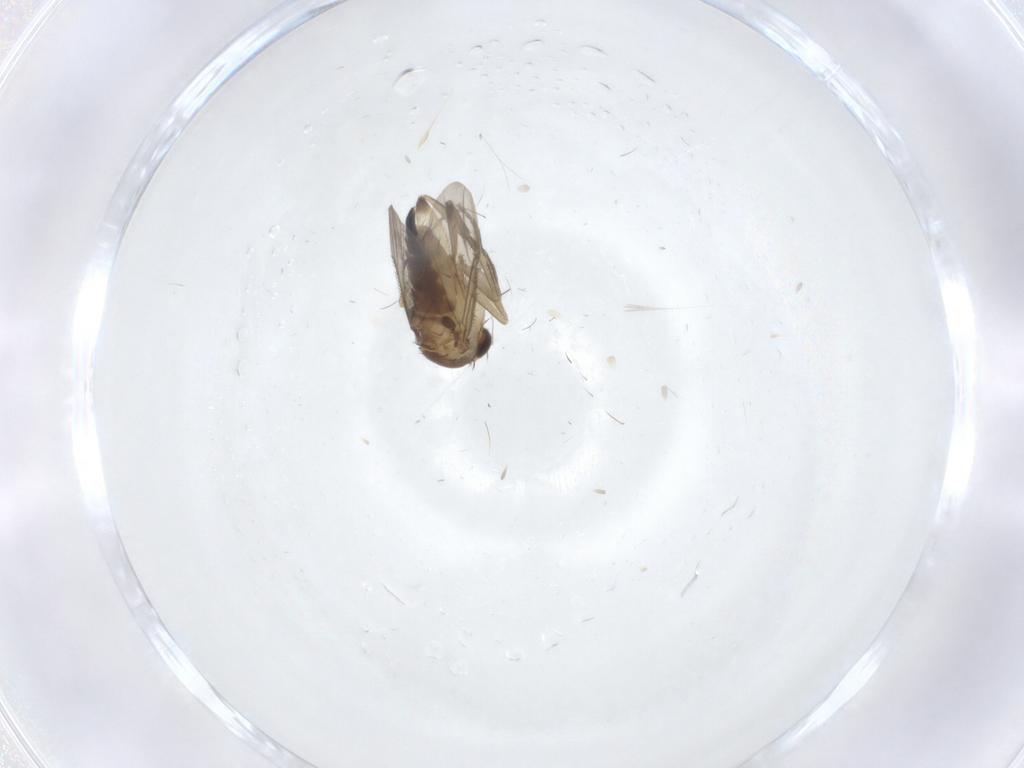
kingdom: Animalia
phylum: Arthropoda
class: Insecta
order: Diptera
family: Phoridae
